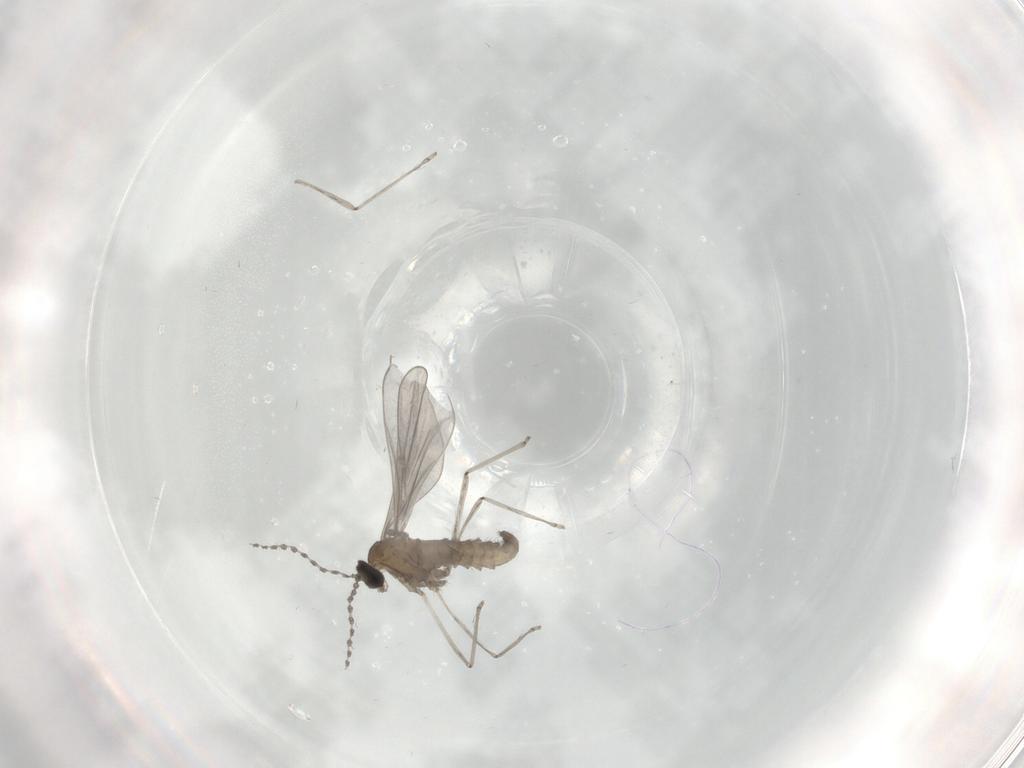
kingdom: Animalia
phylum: Arthropoda
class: Insecta
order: Diptera
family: Cecidomyiidae
